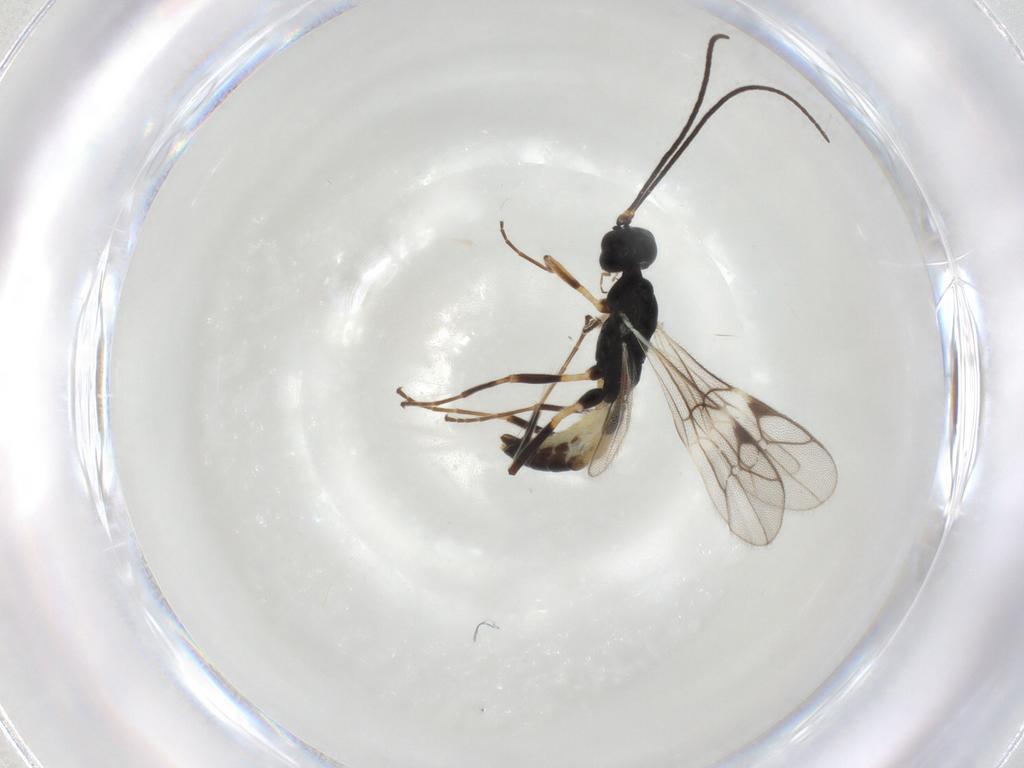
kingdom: Animalia
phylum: Arthropoda
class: Insecta
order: Hymenoptera
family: Ichneumonidae
